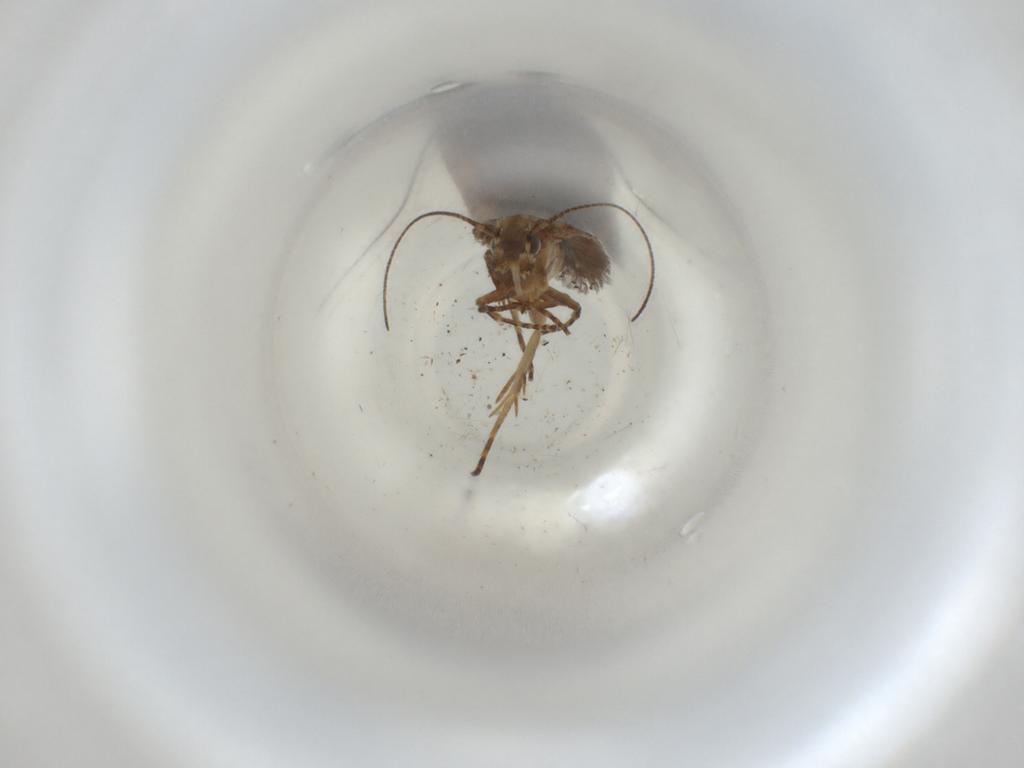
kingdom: Animalia
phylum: Arthropoda
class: Insecta
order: Lepidoptera
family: Gelechiidae
